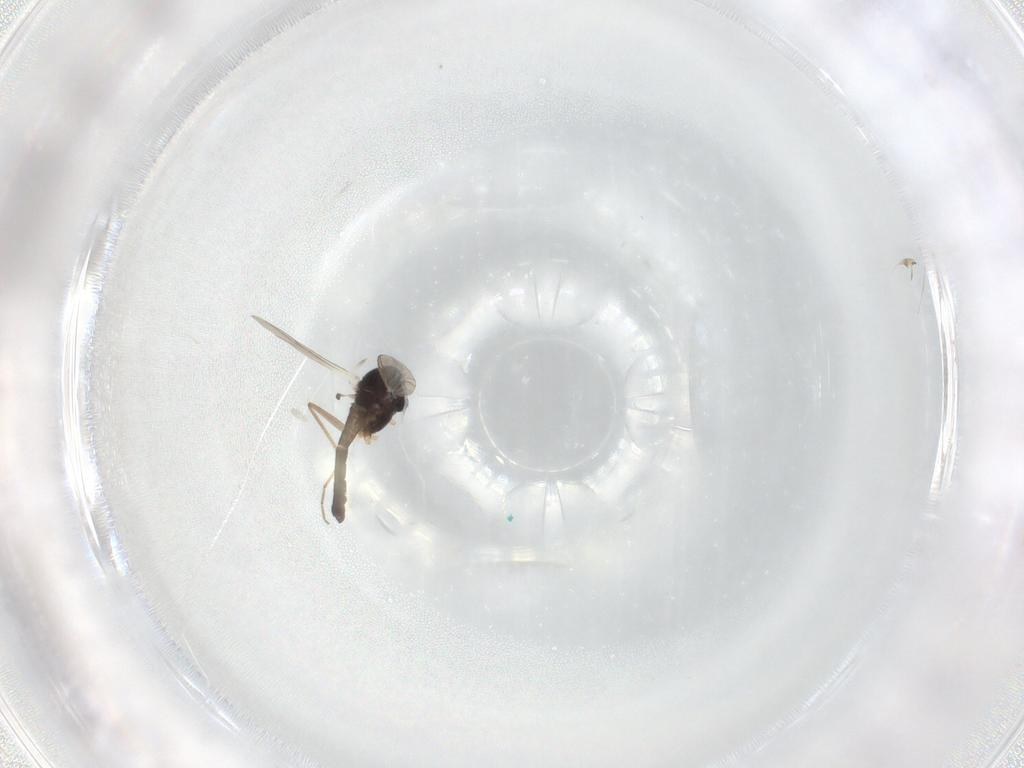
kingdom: Animalia
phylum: Arthropoda
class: Insecta
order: Diptera
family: Chironomidae
